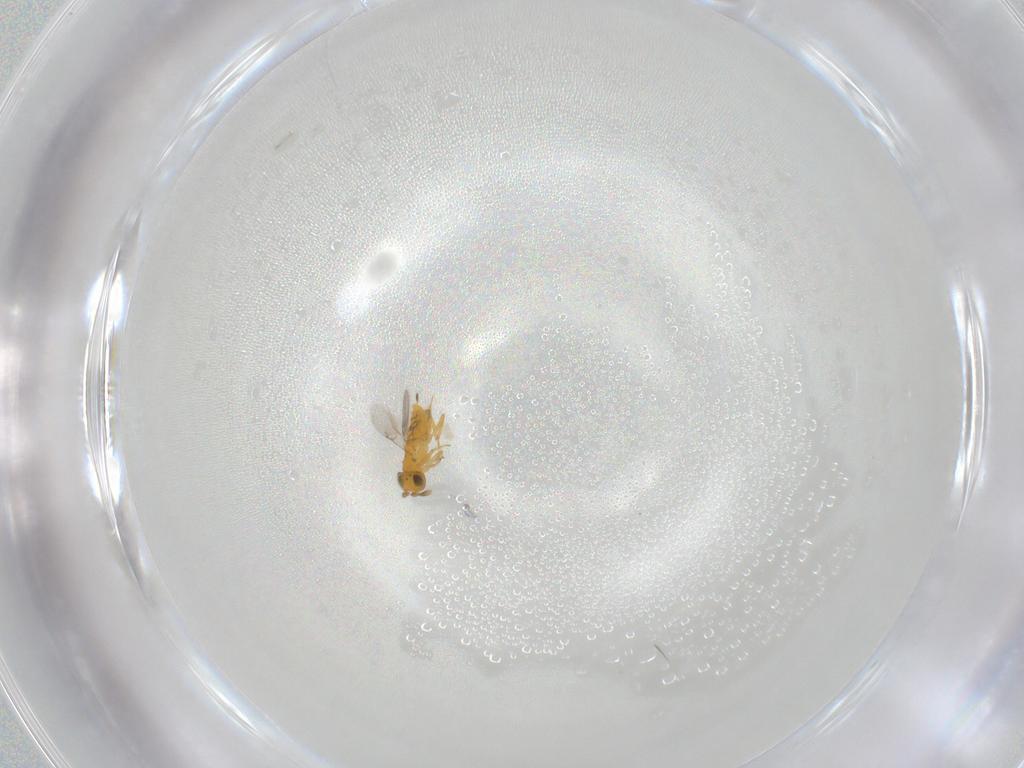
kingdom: Animalia
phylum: Arthropoda
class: Insecta
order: Hymenoptera
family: Encyrtidae
